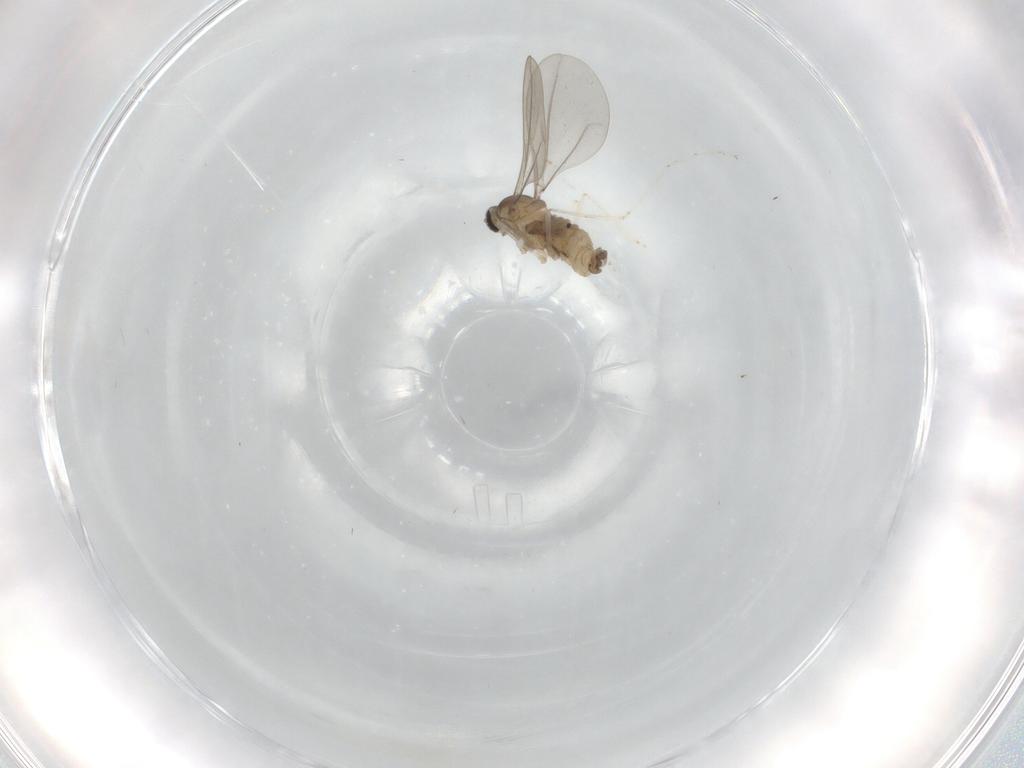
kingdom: Animalia
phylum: Arthropoda
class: Insecta
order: Diptera
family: Cecidomyiidae
